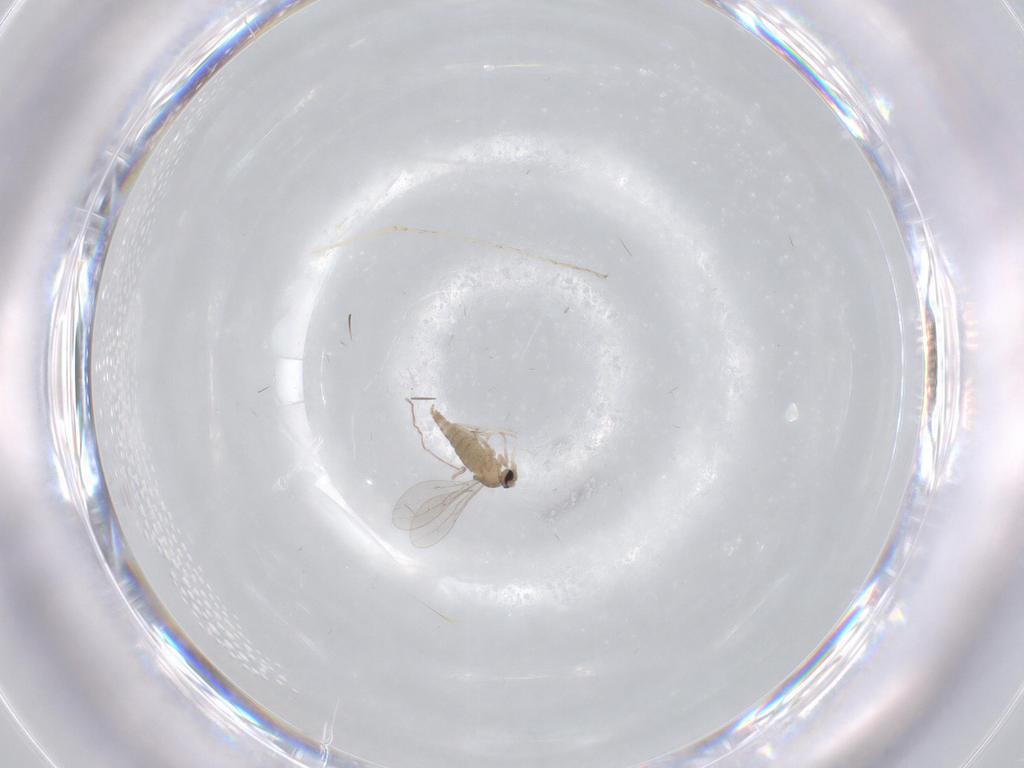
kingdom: Animalia
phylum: Arthropoda
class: Insecta
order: Diptera
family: Cecidomyiidae
